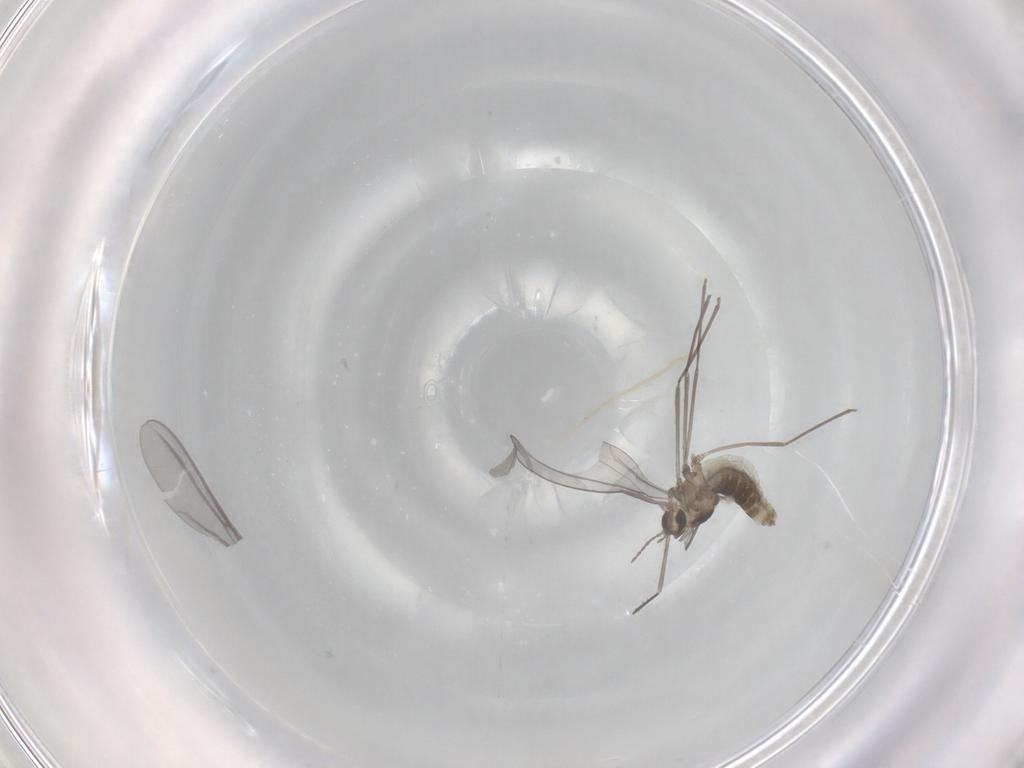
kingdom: Animalia
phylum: Arthropoda
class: Insecta
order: Diptera
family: Cecidomyiidae
